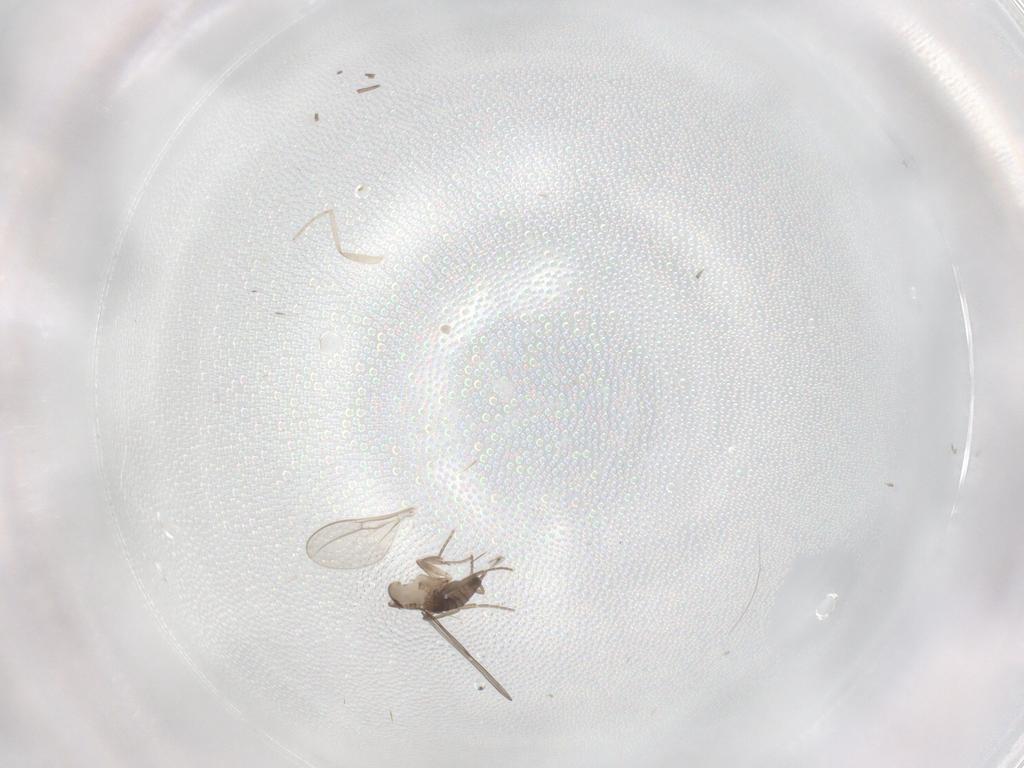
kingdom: Animalia
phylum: Arthropoda
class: Insecta
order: Diptera
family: Cecidomyiidae
